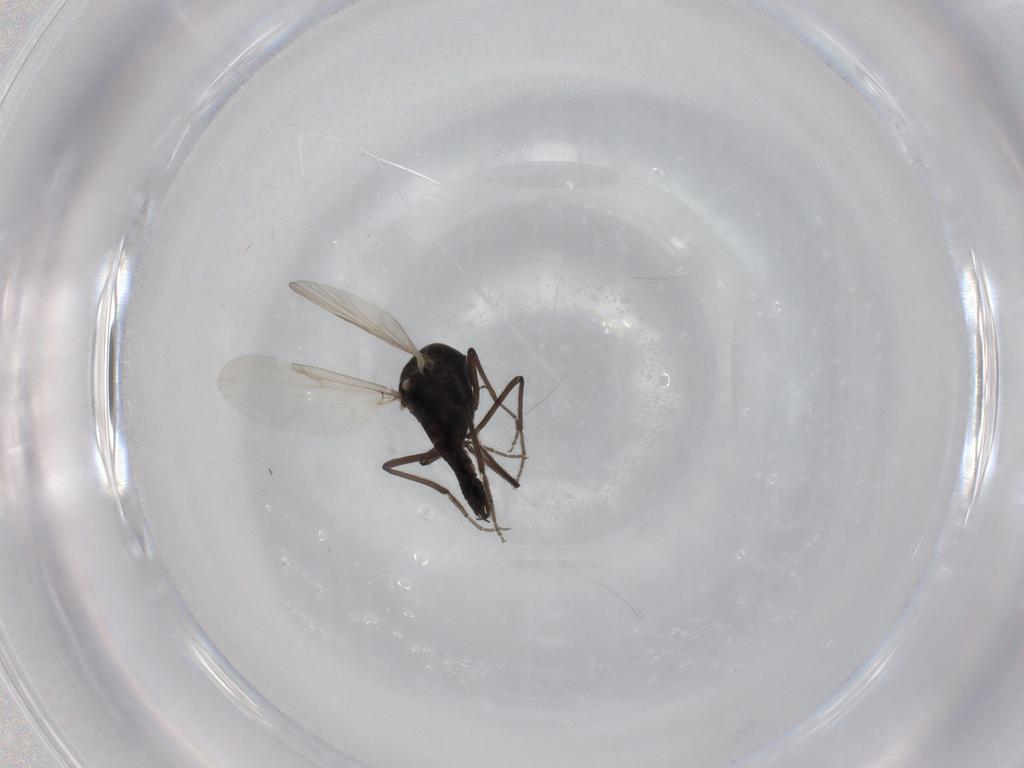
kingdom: Animalia
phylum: Arthropoda
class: Insecta
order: Diptera
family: Ceratopogonidae
